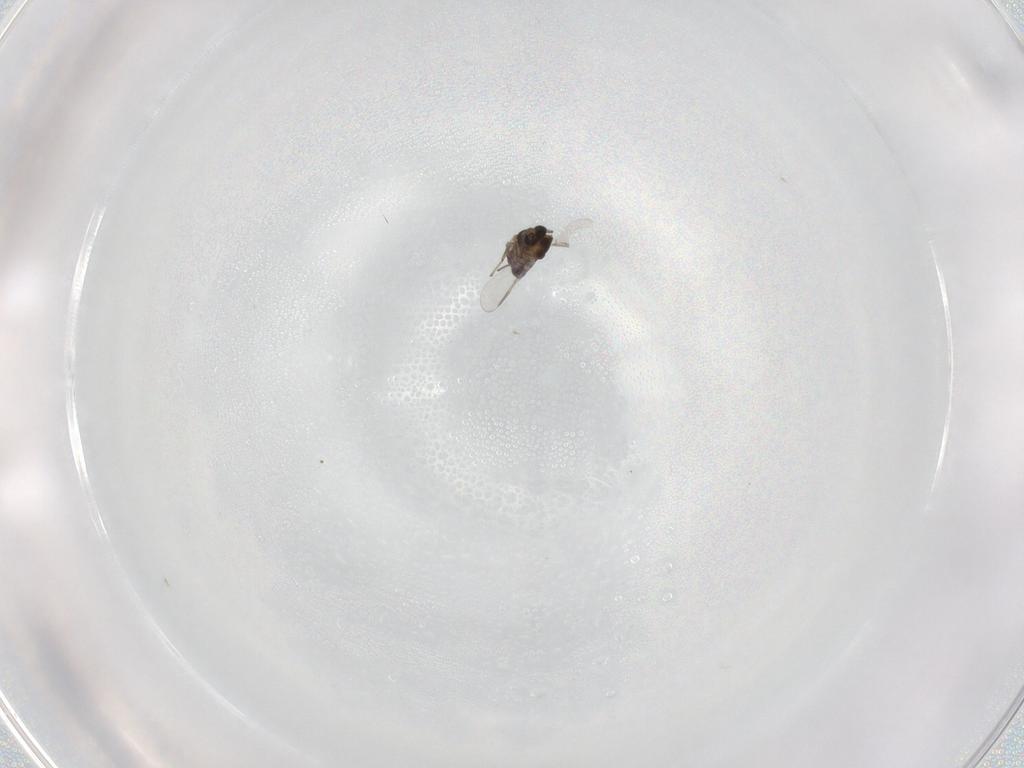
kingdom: Animalia
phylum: Arthropoda
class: Insecta
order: Diptera
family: Chironomidae
